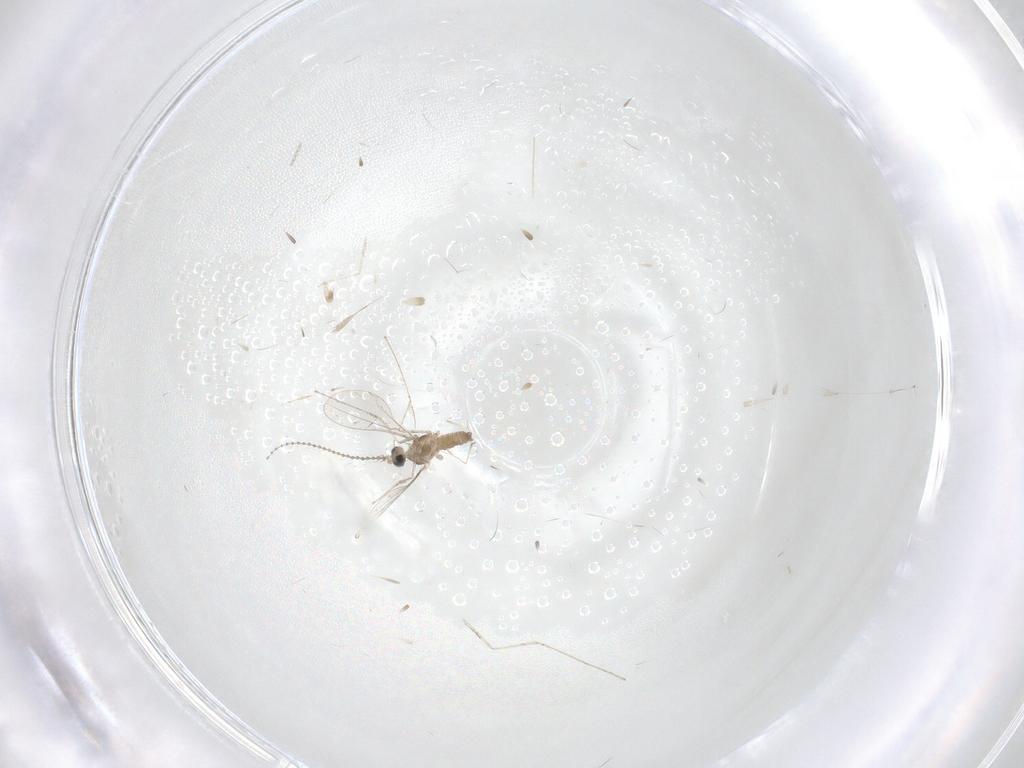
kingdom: Animalia
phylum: Arthropoda
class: Insecta
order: Diptera
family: Cecidomyiidae
